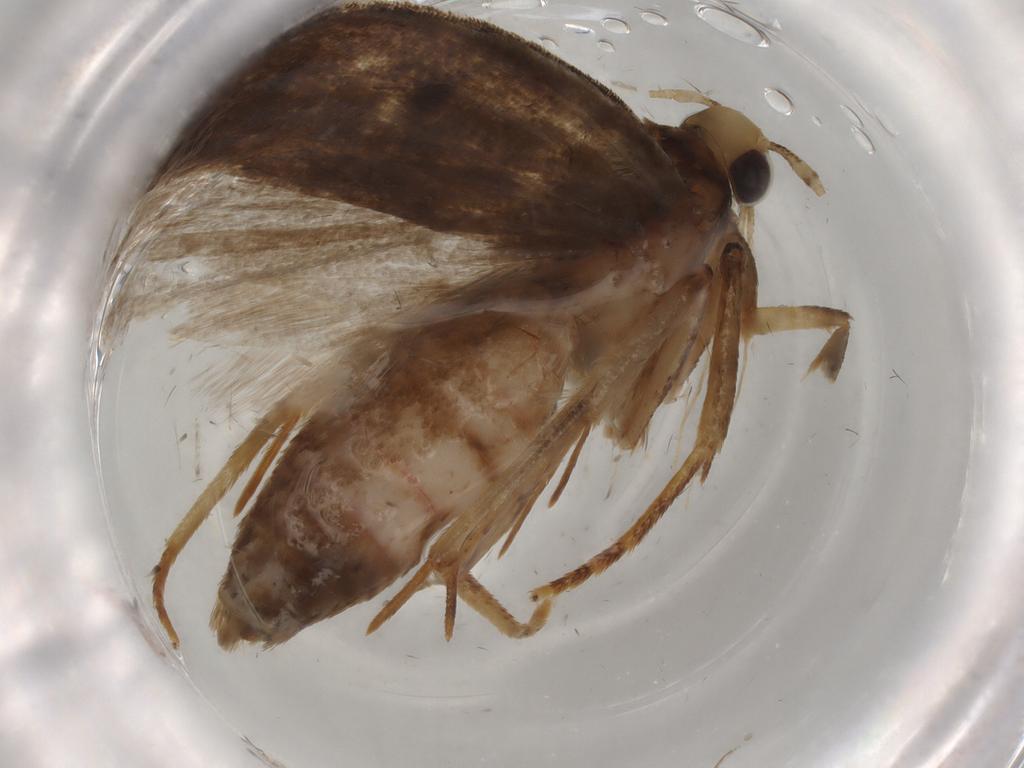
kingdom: Animalia
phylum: Arthropoda
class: Insecta
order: Lepidoptera
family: Autostichidae
